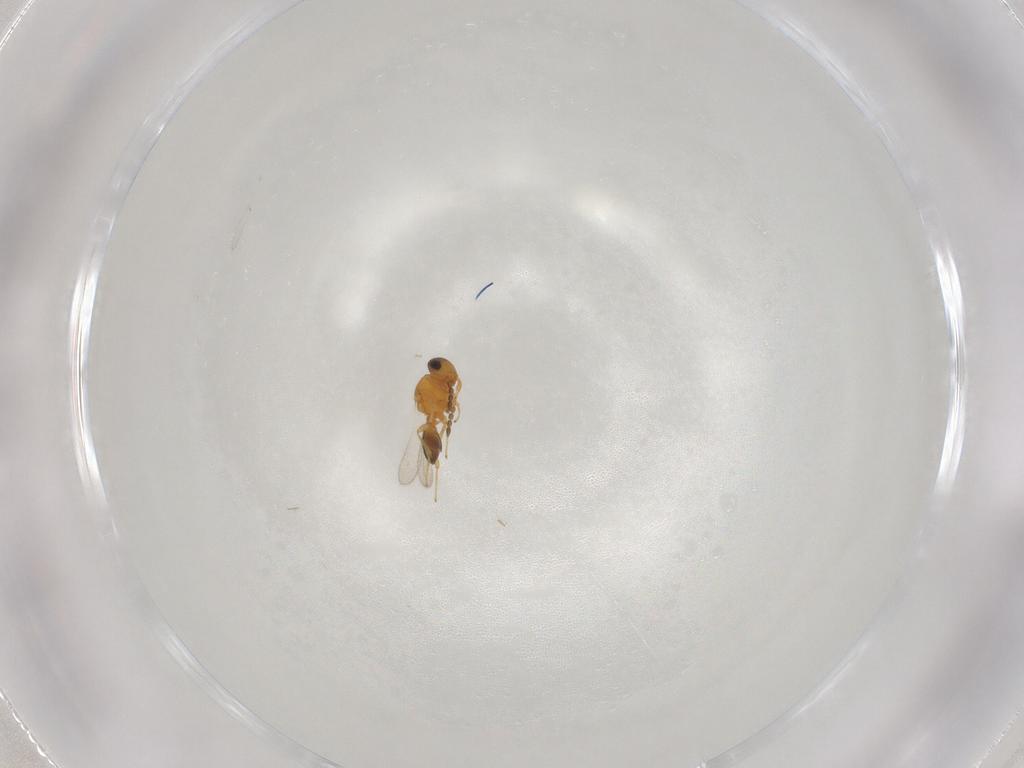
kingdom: Animalia
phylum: Arthropoda
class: Insecta
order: Hymenoptera
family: Platygastridae
